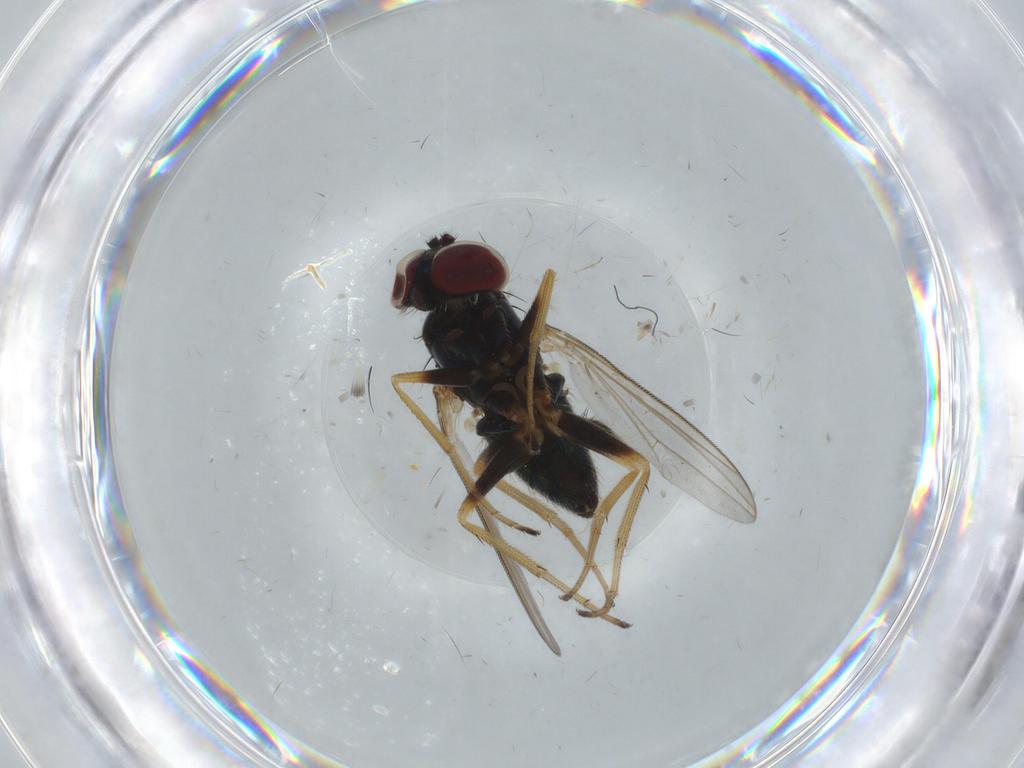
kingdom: Animalia
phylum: Arthropoda
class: Insecta
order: Diptera
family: Dolichopodidae
